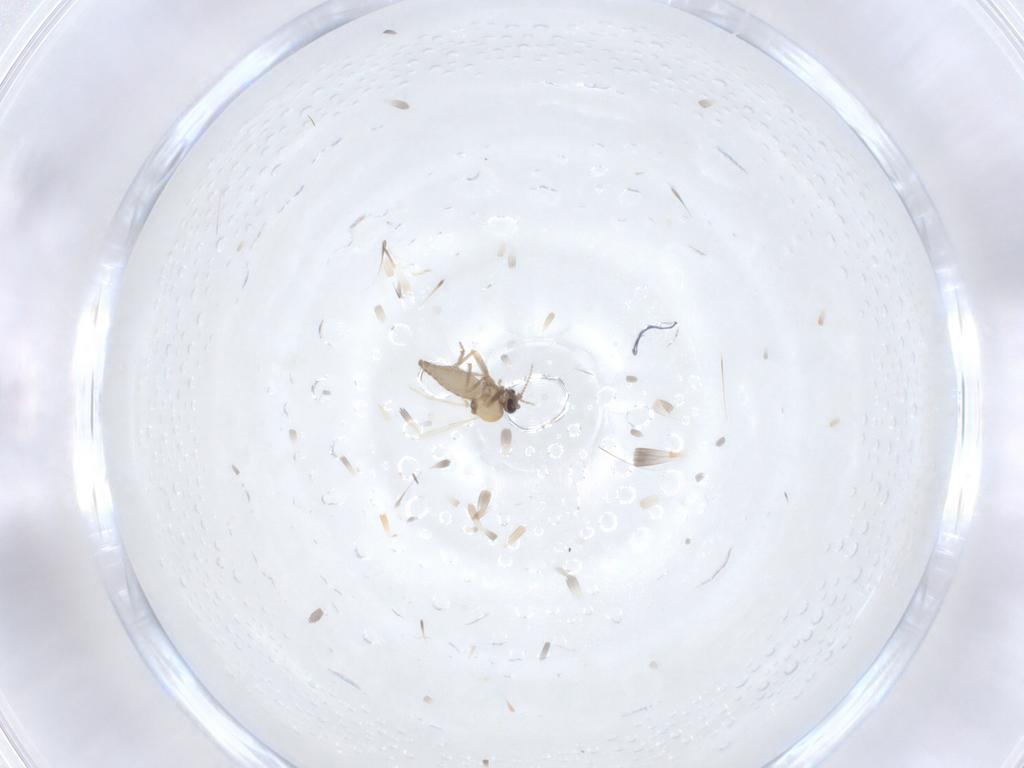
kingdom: Animalia
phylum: Arthropoda
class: Insecta
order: Diptera
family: Ceratopogonidae
